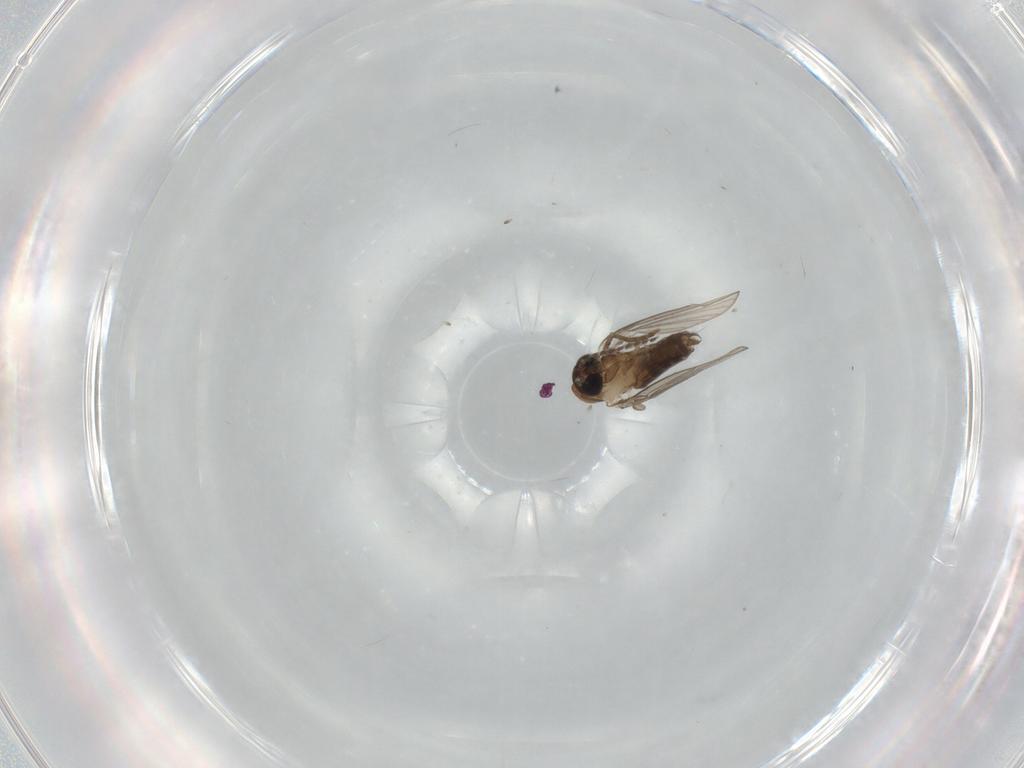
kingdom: Animalia
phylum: Arthropoda
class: Insecta
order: Diptera
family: Psychodidae
